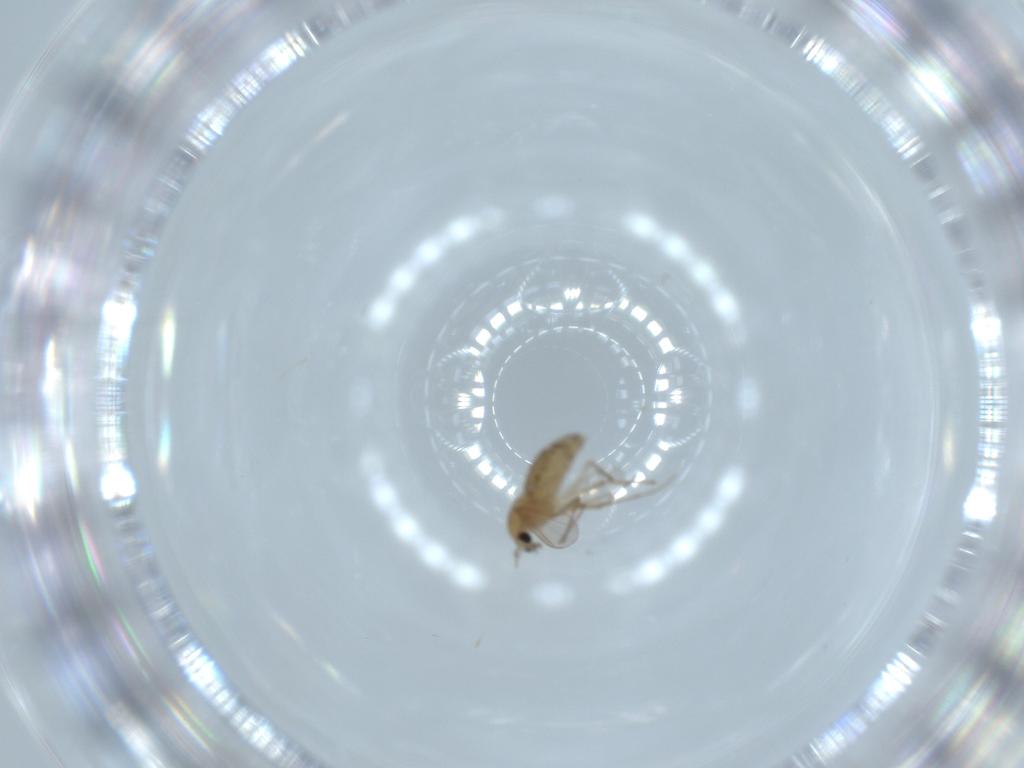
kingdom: Animalia
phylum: Arthropoda
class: Insecta
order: Diptera
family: Chironomidae
